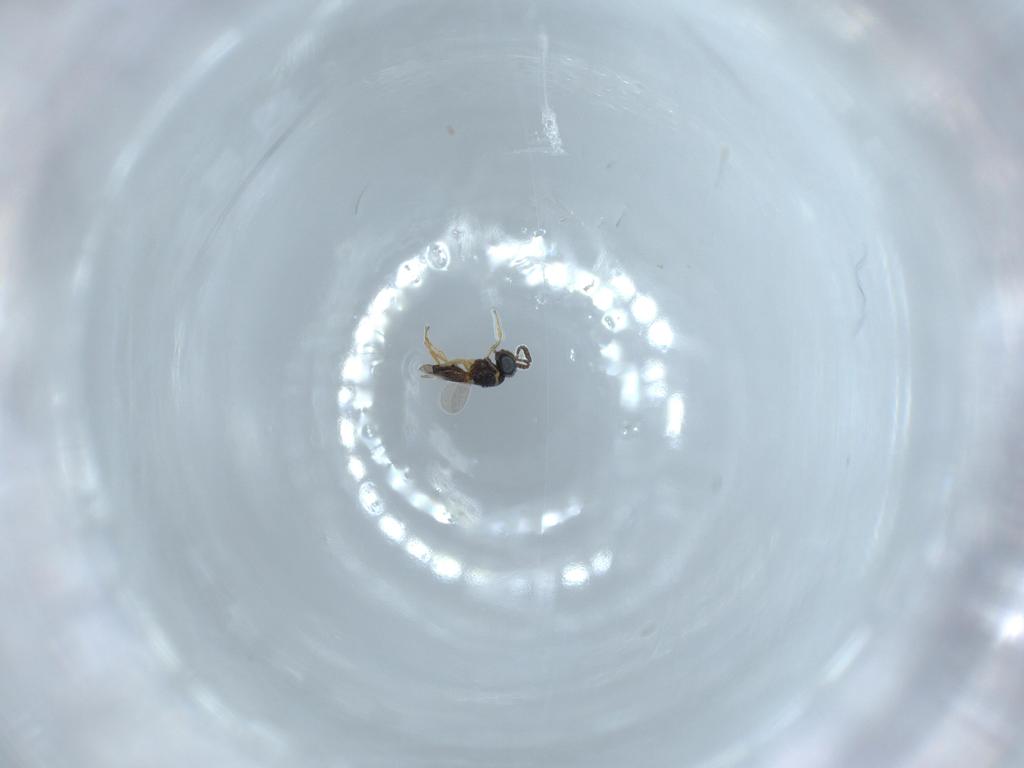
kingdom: Animalia
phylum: Arthropoda
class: Insecta
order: Hymenoptera
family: Scelionidae
